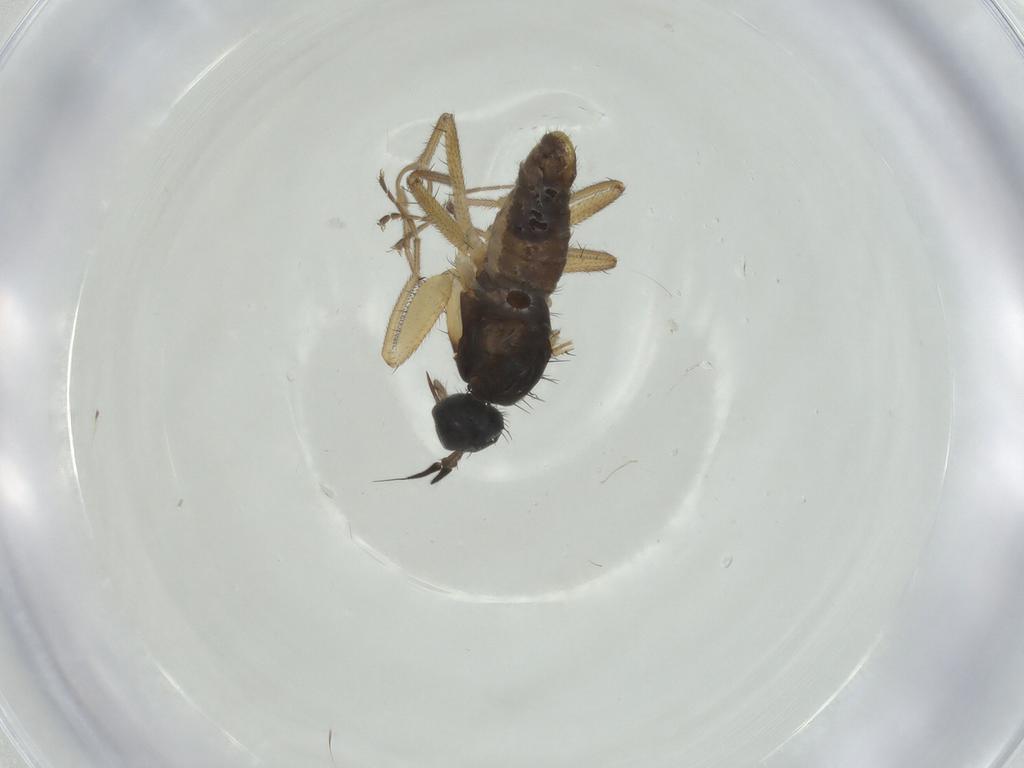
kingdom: Animalia
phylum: Arthropoda
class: Insecta
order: Diptera
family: Empididae
